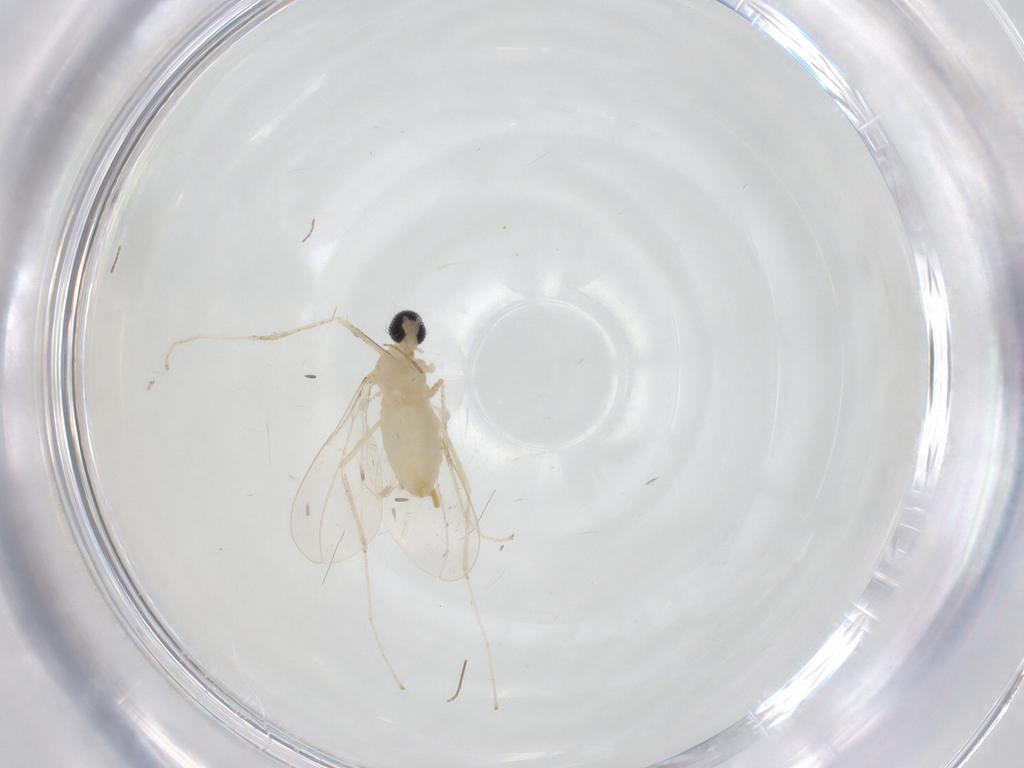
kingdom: Animalia
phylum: Arthropoda
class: Insecta
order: Diptera
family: Cecidomyiidae
